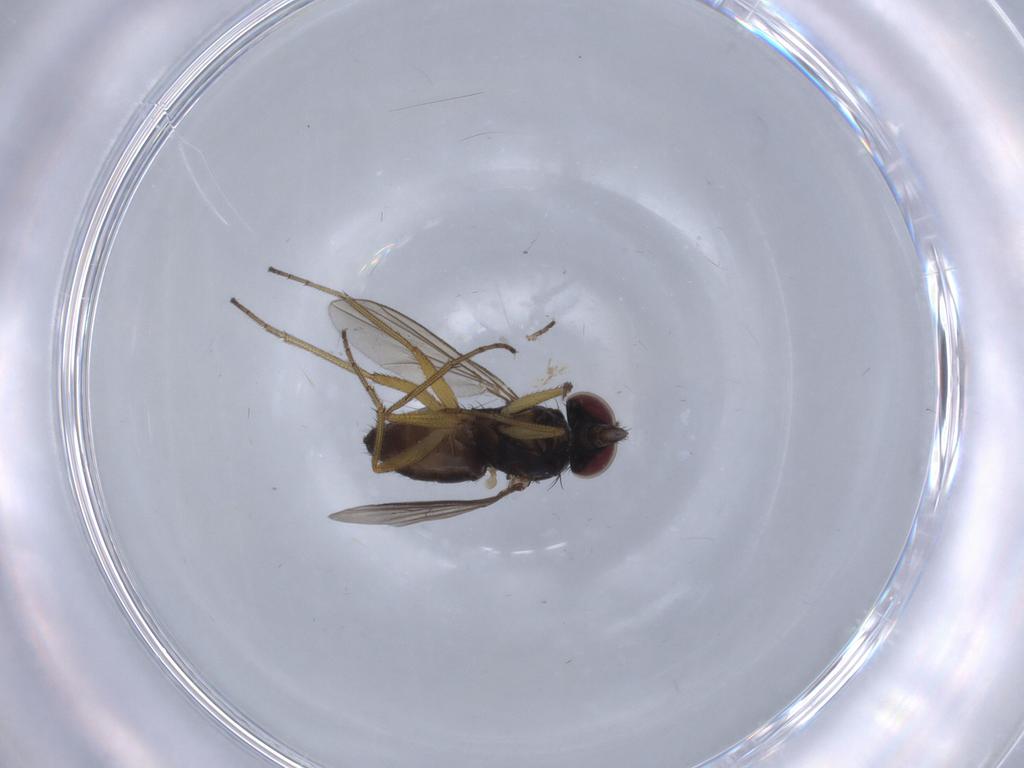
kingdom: Animalia
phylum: Arthropoda
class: Insecta
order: Diptera
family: Dolichopodidae
